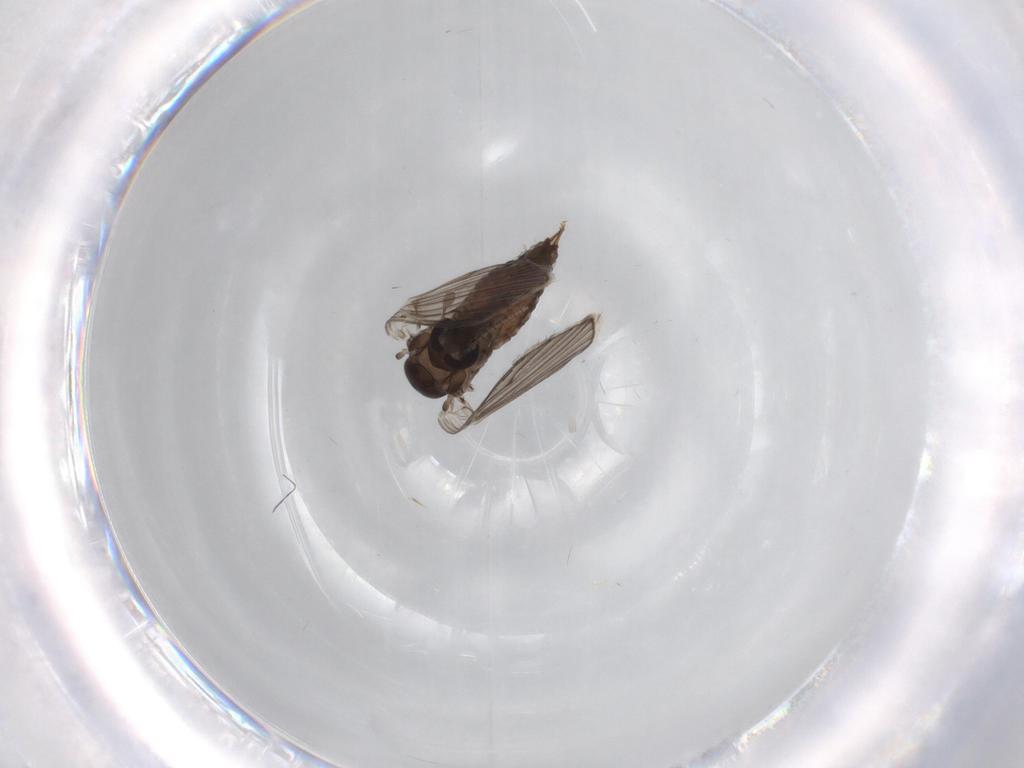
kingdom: Animalia
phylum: Arthropoda
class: Insecta
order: Diptera
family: Psychodidae
